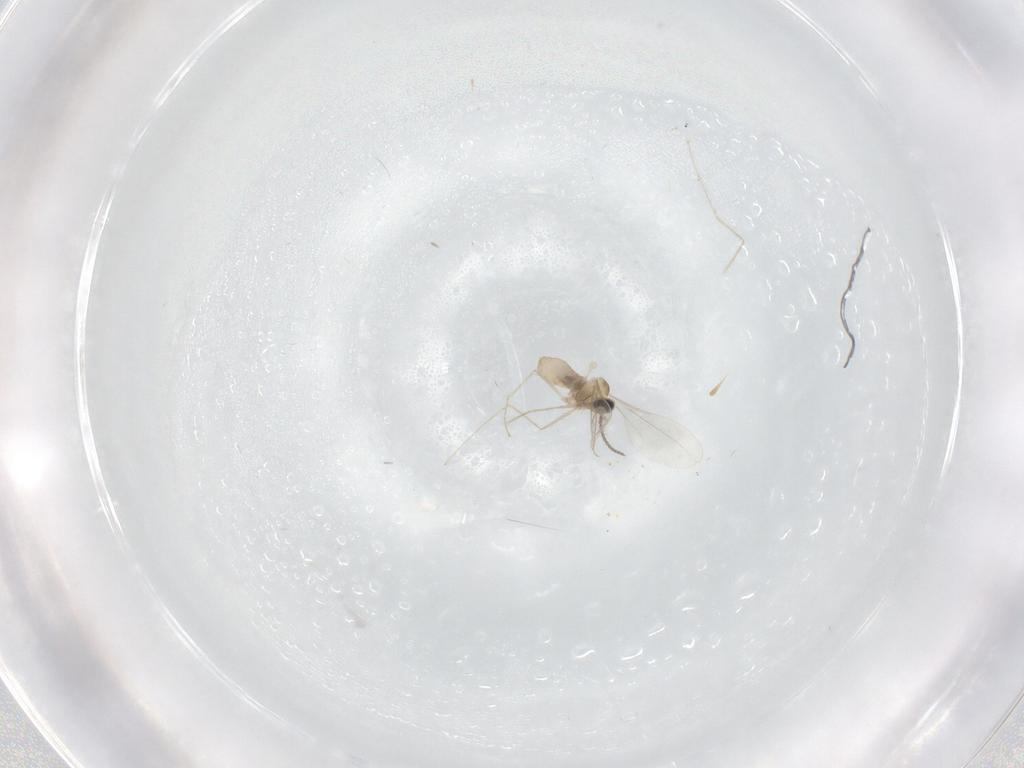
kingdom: Animalia
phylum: Arthropoda
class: Insecta
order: Diptera
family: Cecidomyiidae
